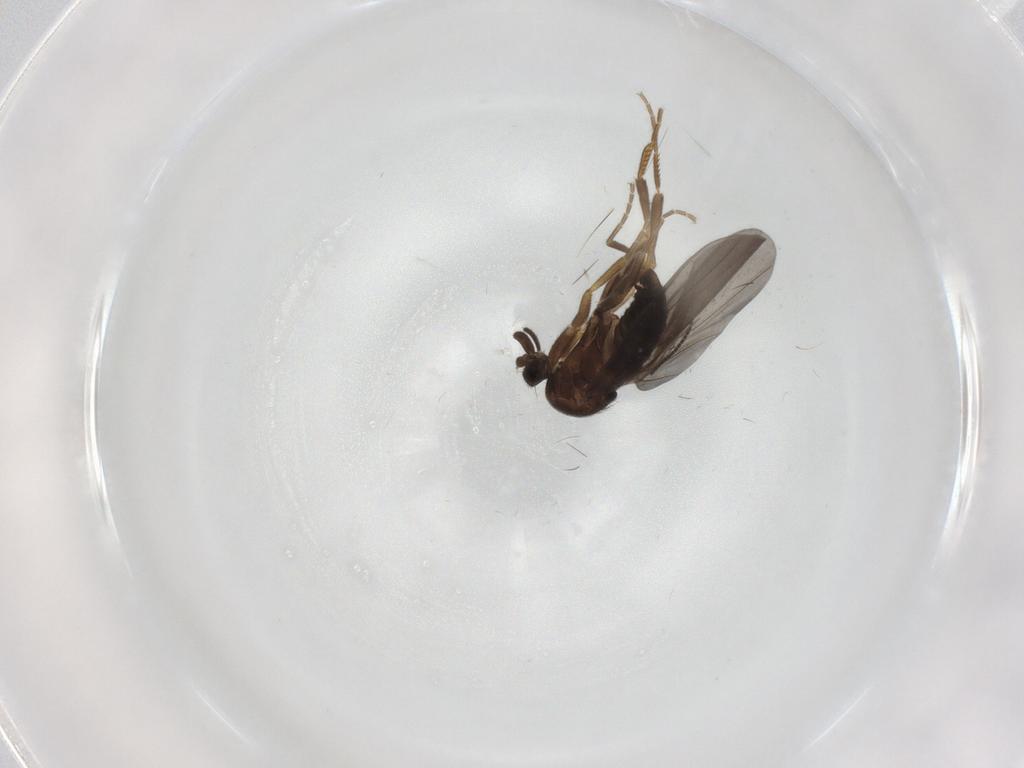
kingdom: Animalia
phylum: Arthropoda
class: Insecta
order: Diptera
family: Sciaridae
